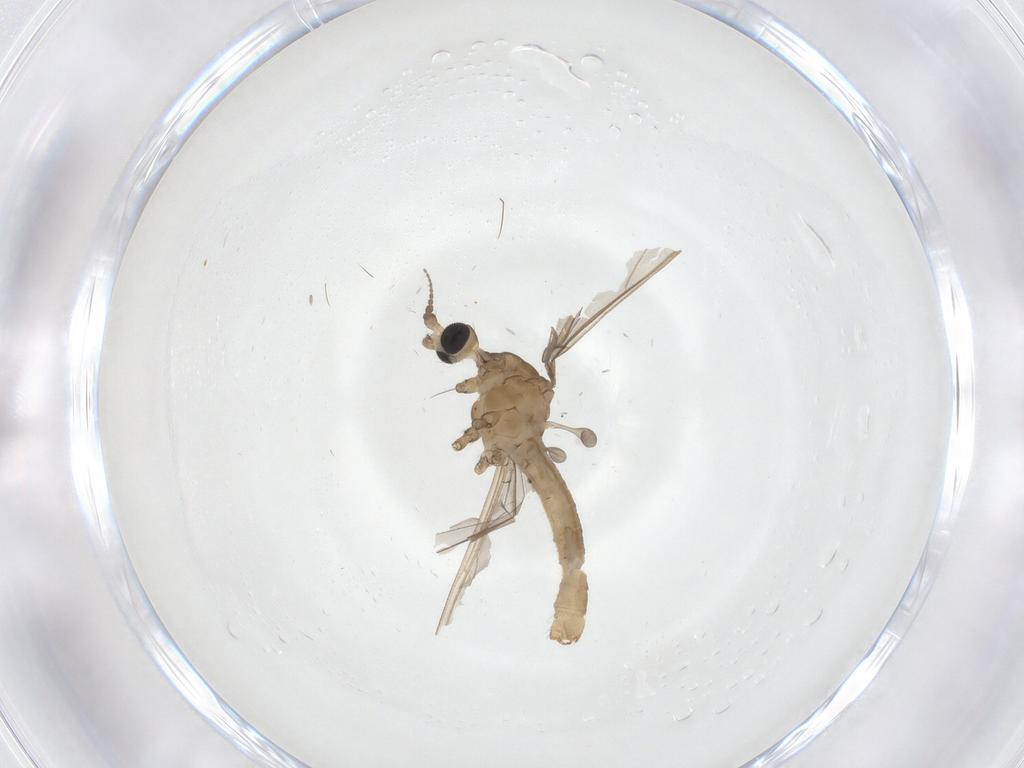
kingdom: Animalia
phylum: Arthropoda
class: Insecta
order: Diptera
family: Limoniidae
